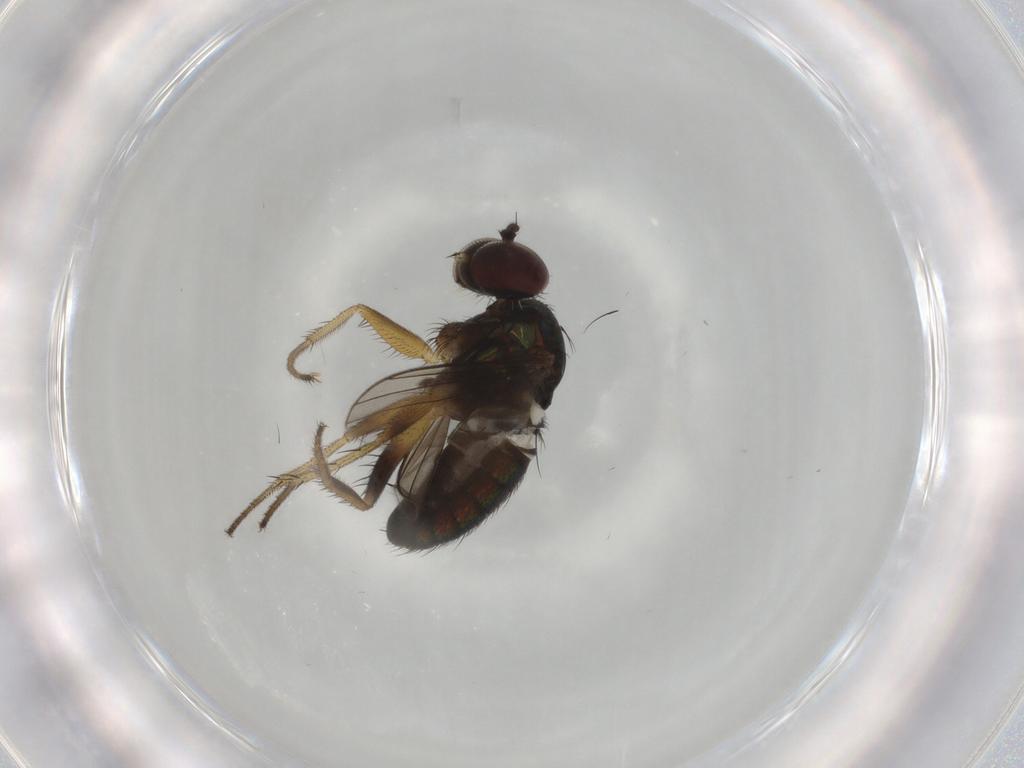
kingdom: Animalia
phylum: Arthropoda
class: Insecta
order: Diptera
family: Dolichopodidae
